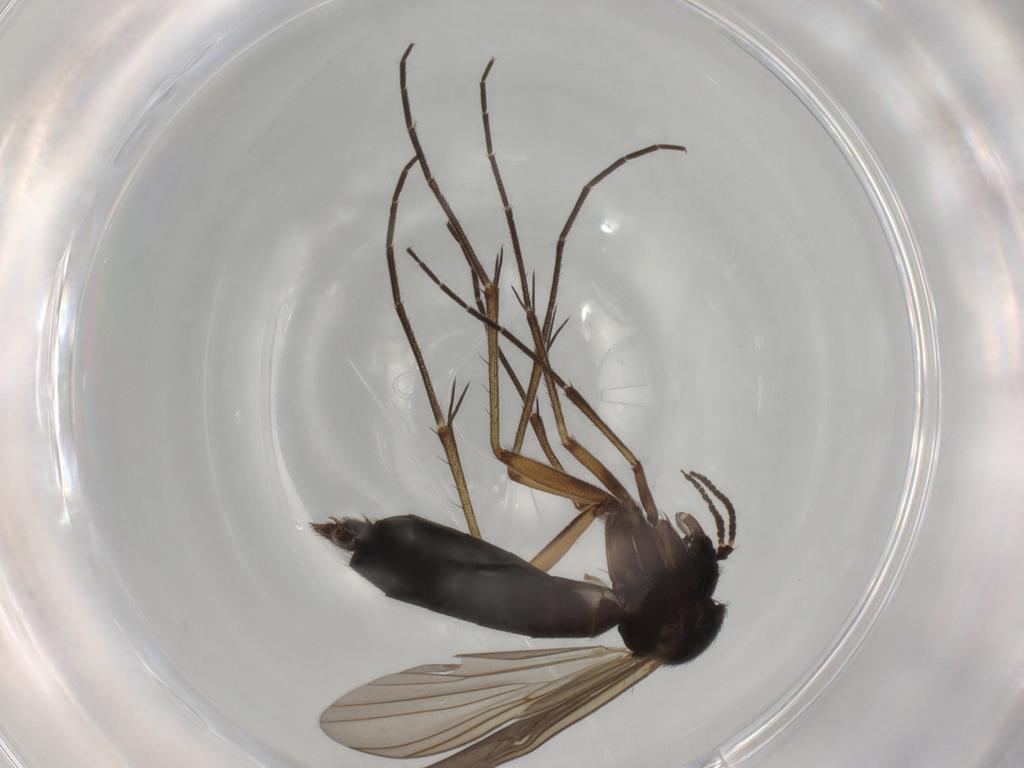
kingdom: Animalia
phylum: Arthropoda
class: Insecta
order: Diptera
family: Mycetophilidae
